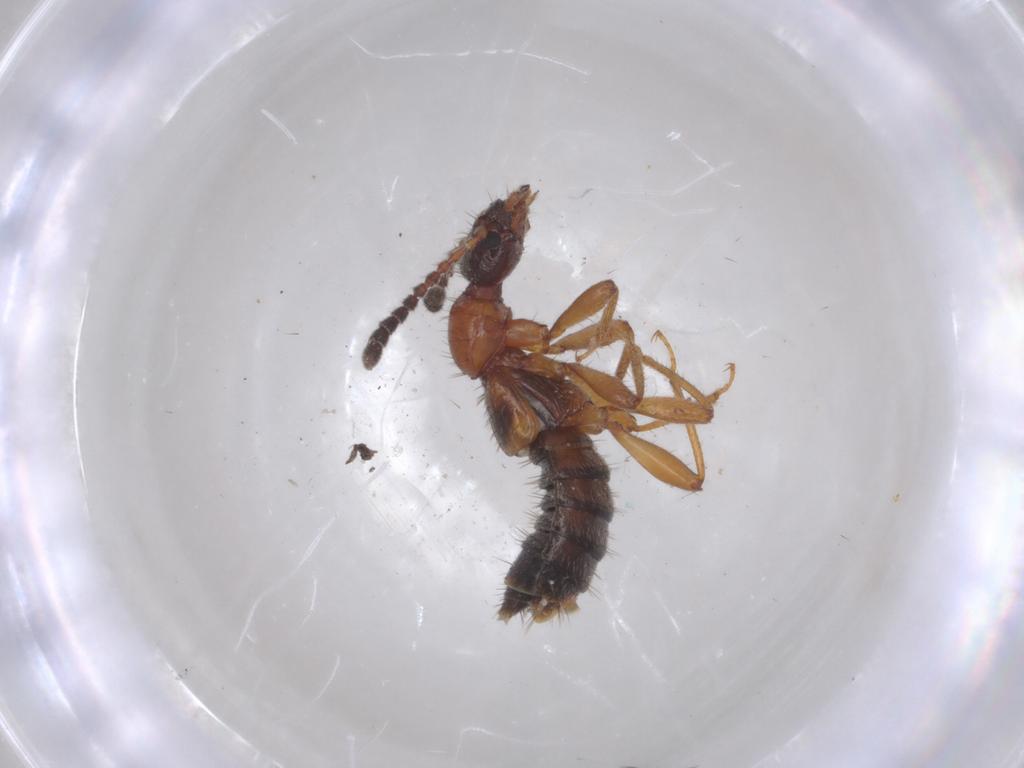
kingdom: Animalia
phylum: Arthropoda
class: Insecta
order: Coleoptera
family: Staphylinidae
